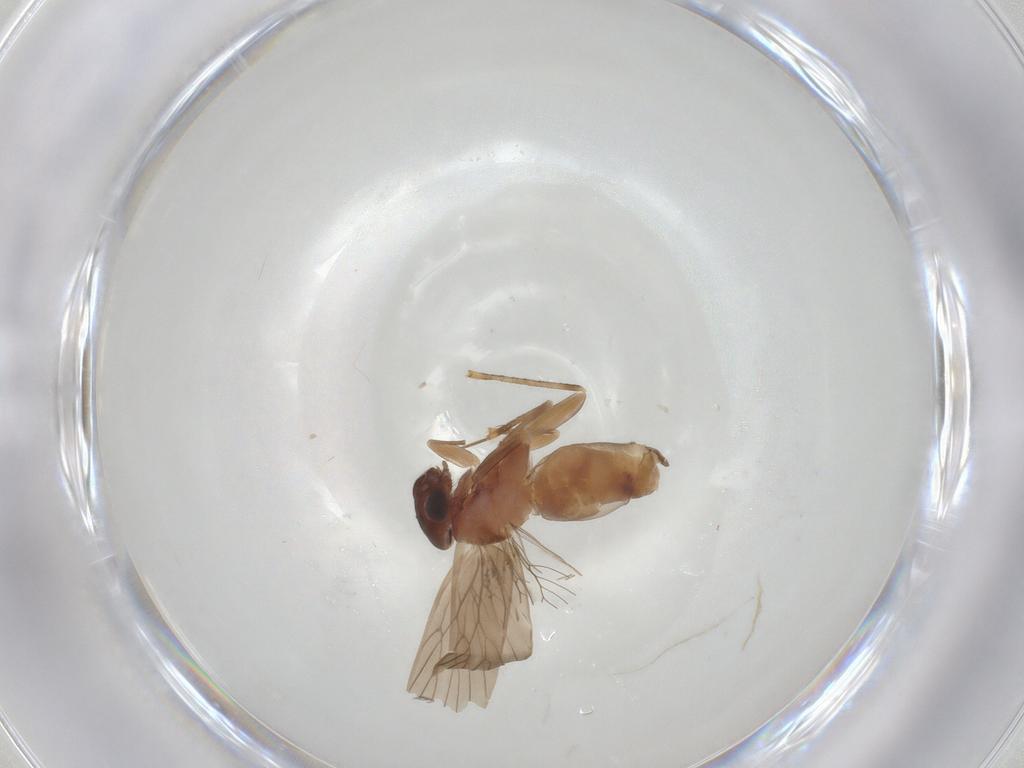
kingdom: Animalia
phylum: Arthropoda
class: Insecta
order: Psocodea
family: Lepidopsocidae
